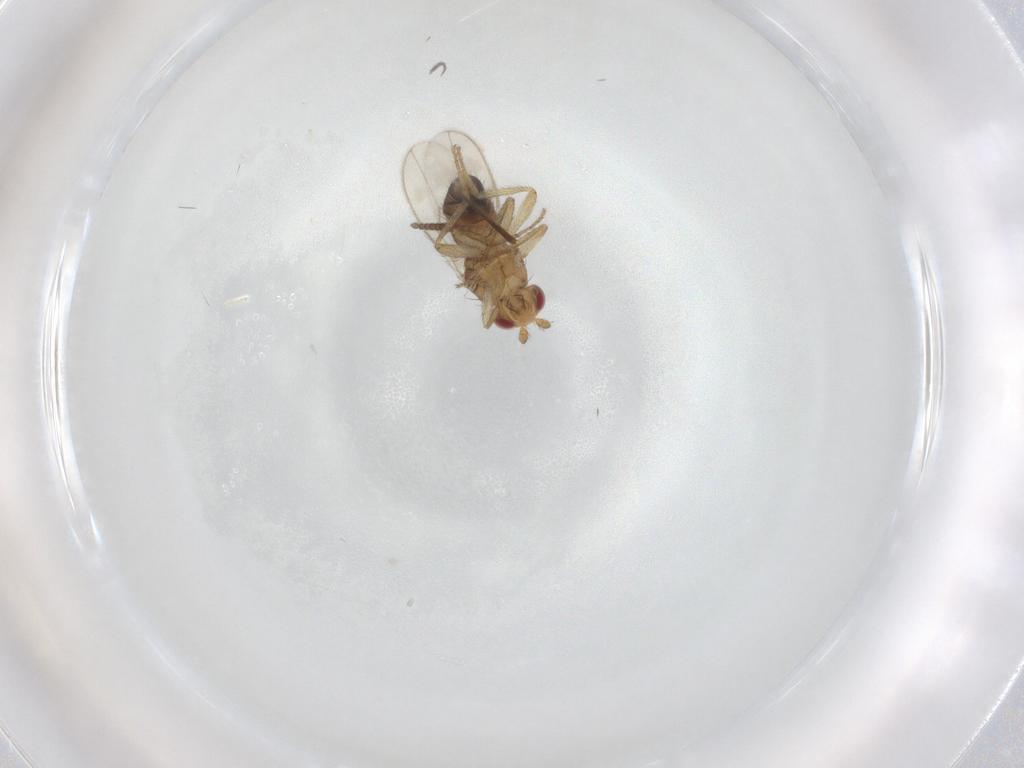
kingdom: Animalia
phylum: Arthropoda
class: Insecta
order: Diptera
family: Sphaeroceridae
